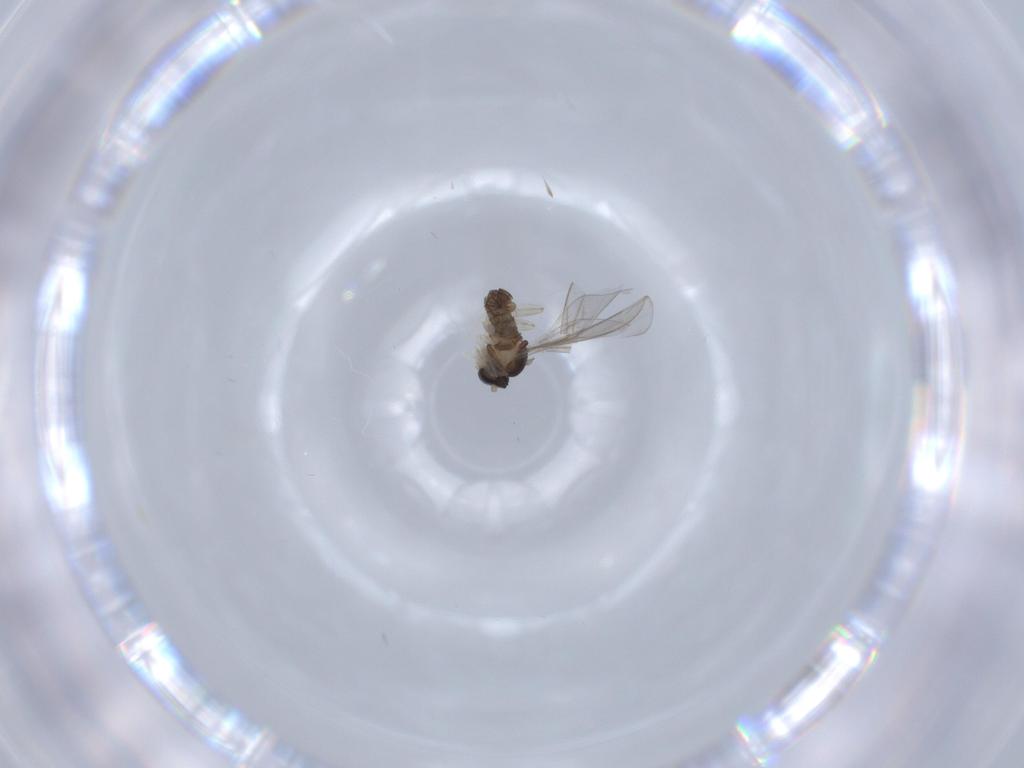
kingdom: Animalia
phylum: Arthropoda
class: Insecta
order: Diptera
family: Cecidomyiidae
